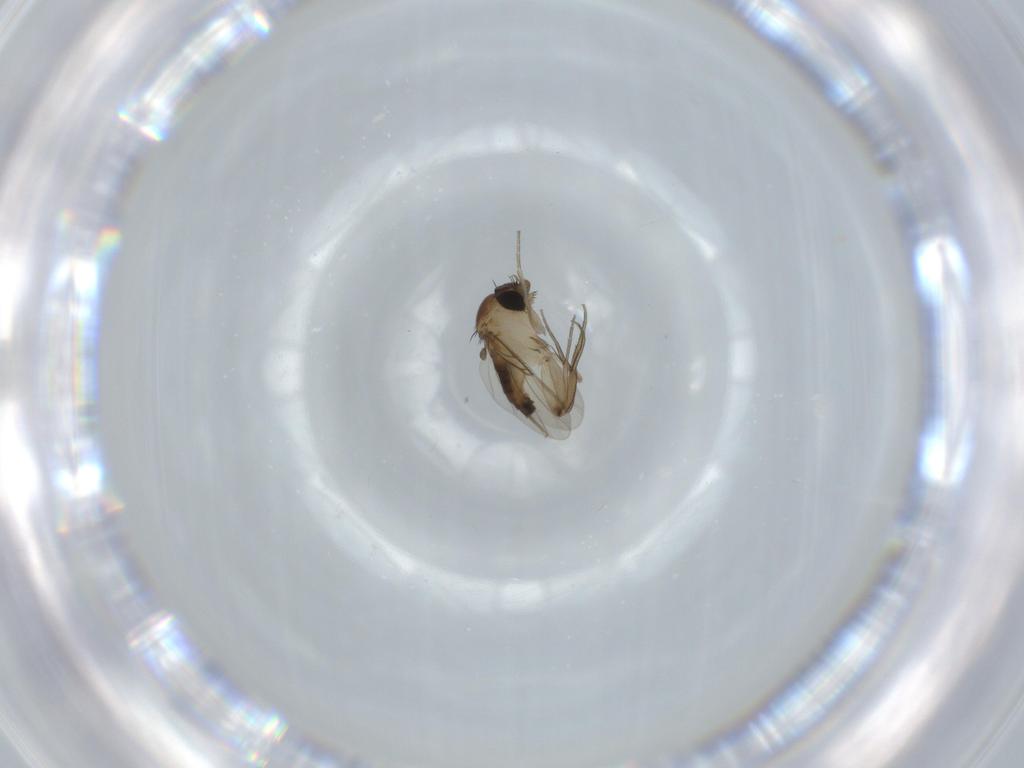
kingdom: Animalia
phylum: Arthropoda
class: Insecta
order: Diptera
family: Phoridae
